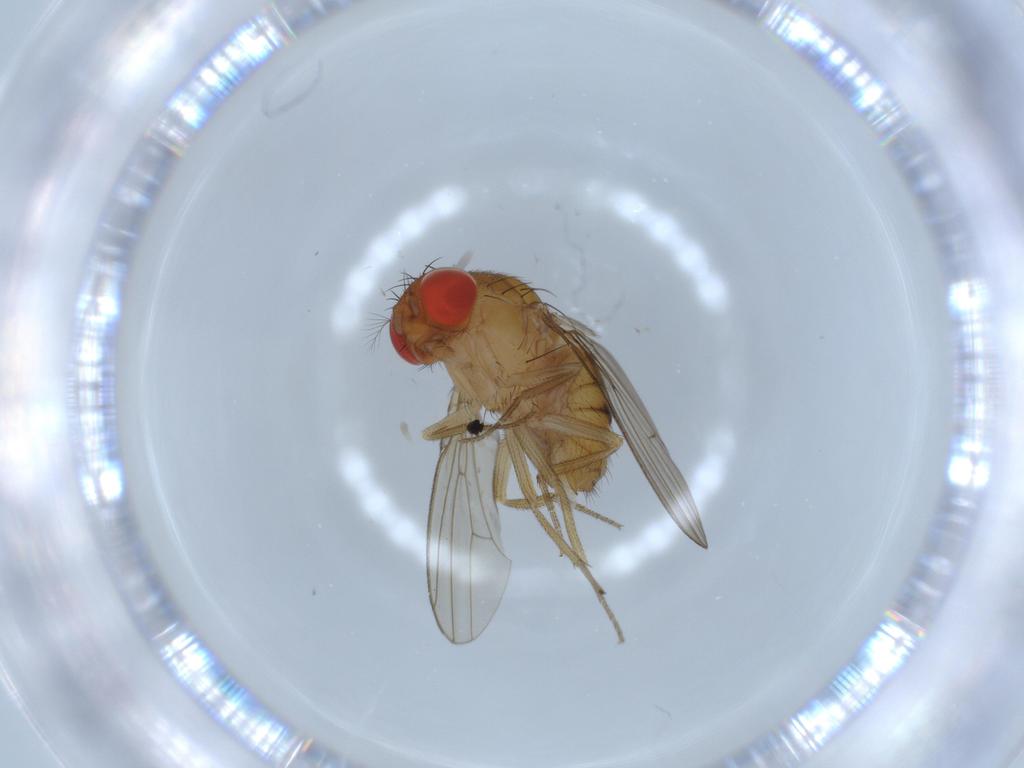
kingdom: Animalia
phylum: Arthropoda
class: Insecta
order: Diptera
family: Drosophilidae
